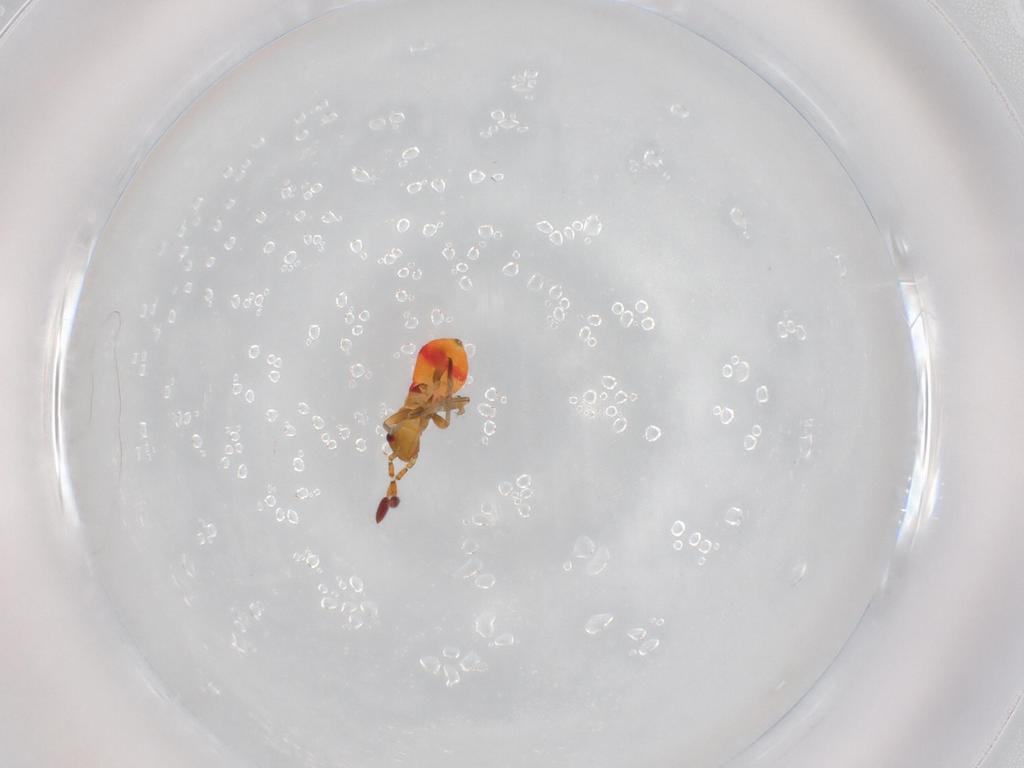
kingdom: Animalia
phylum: Arthropoda
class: Insecta
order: Hemiptera
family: Rhyparochromidae
